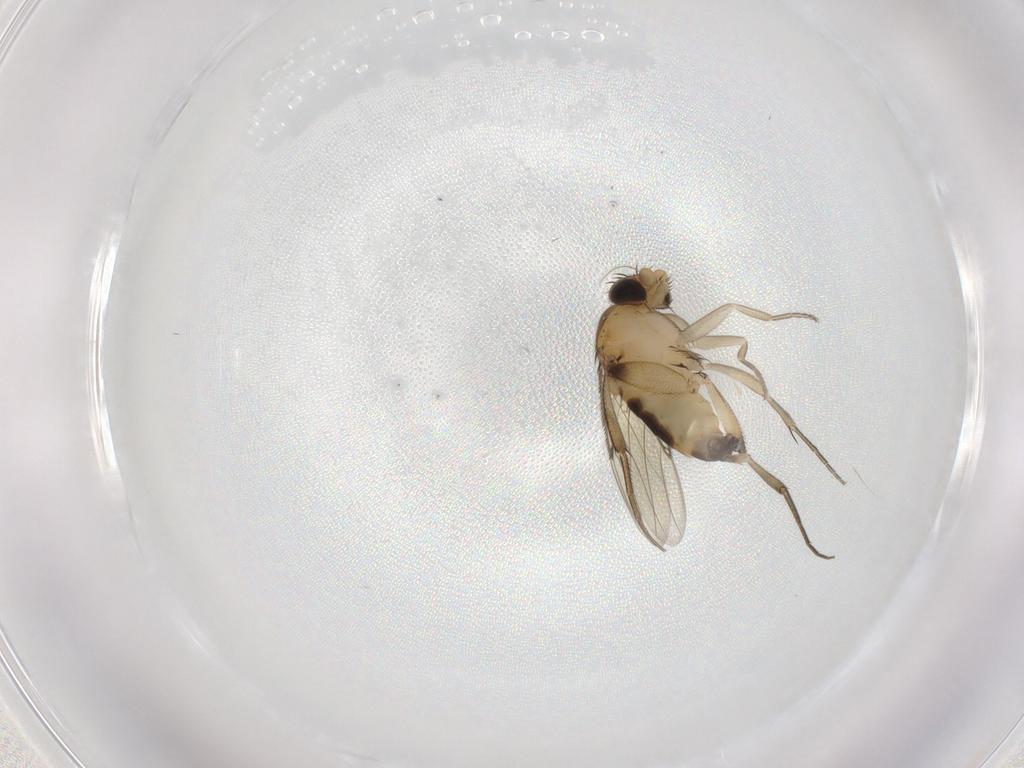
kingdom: Animalia
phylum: Arthropoda
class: Insecta
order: Diptera
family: Phoridae
